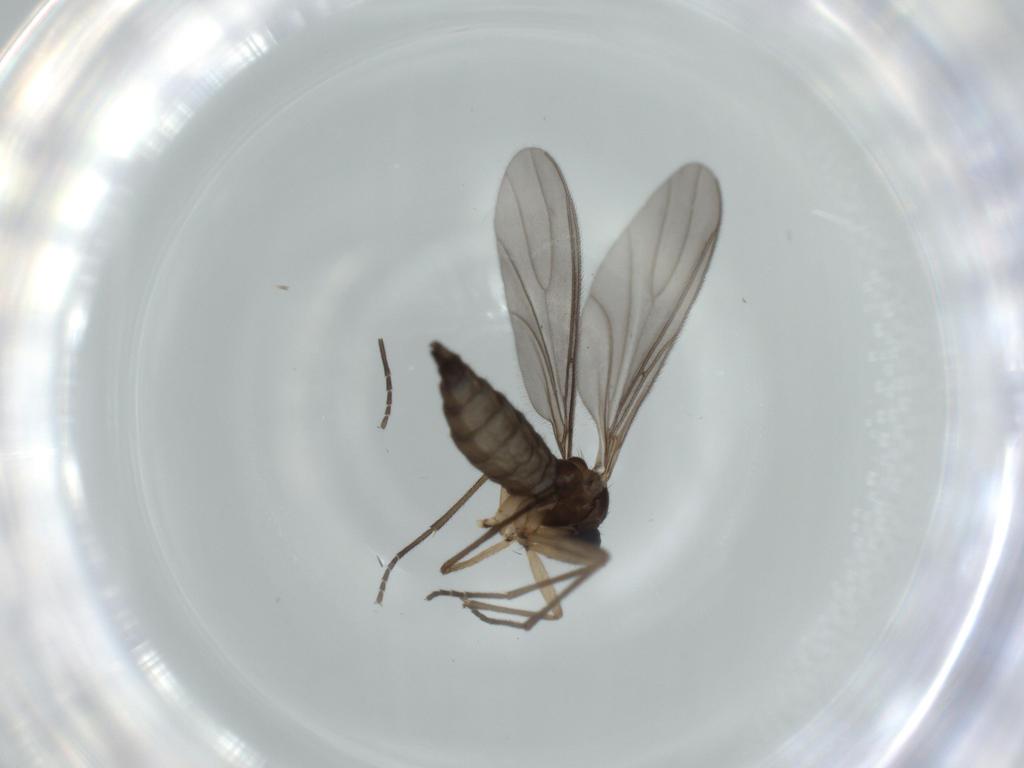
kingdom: Animalia
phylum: Arthropoda
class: Insecta
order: Diptera
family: Sciaridae
